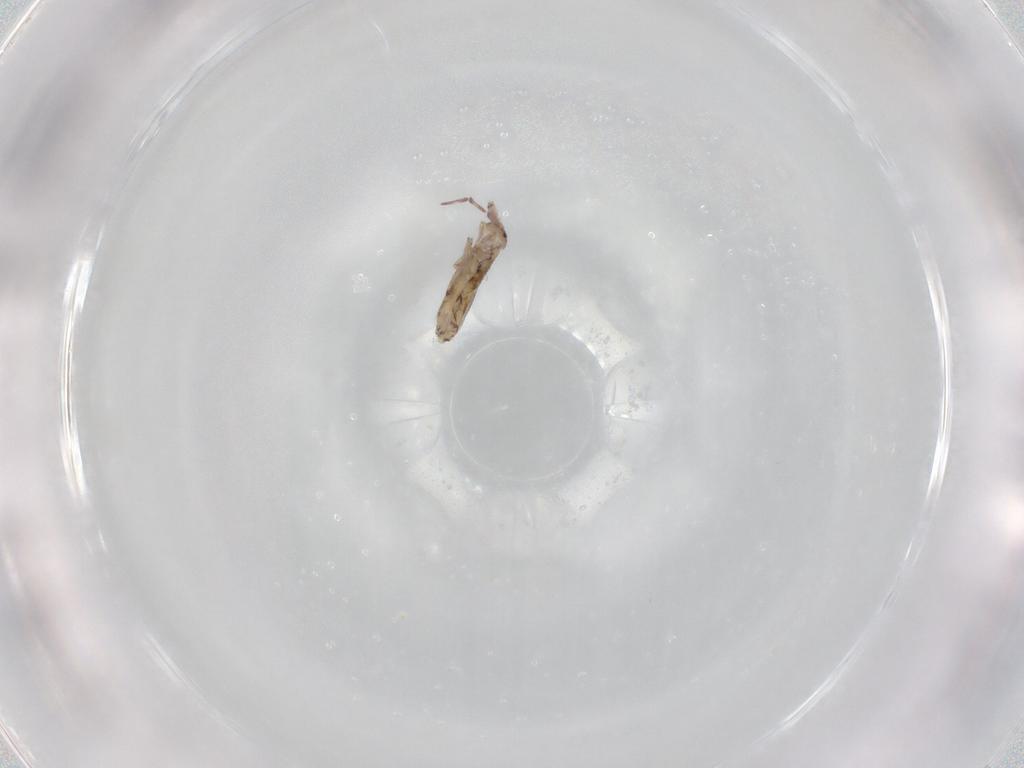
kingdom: Animalia
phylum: Arthropoda
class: Collembola
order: Entomobryomorpha
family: Entomobryidae
